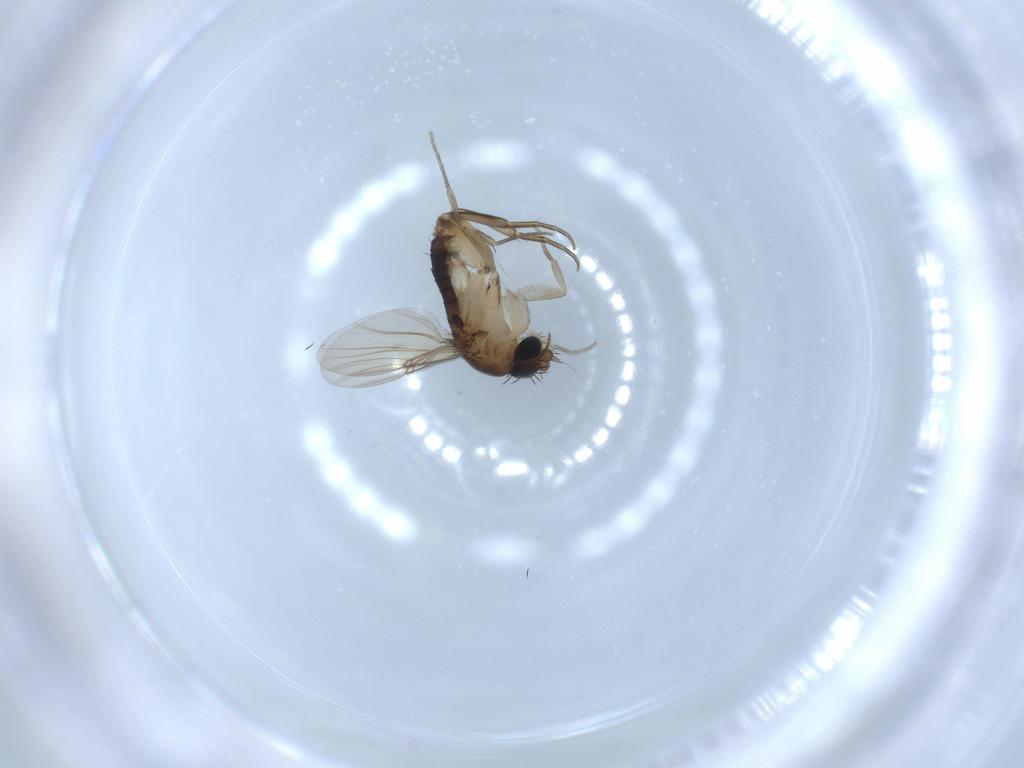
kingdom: Animalia
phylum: Arthropoda
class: Insecta
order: Diptera
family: Phoridae
